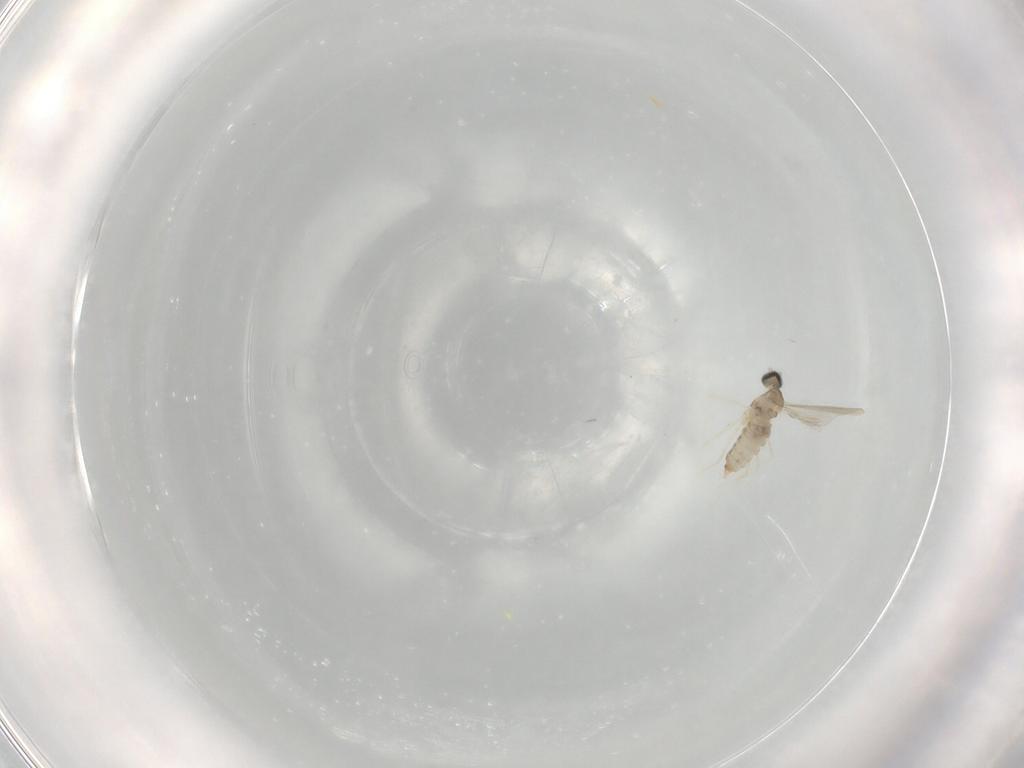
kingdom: Animalia
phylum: Arthropoda
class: Insecta
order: Diptera
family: Cecidomyiidae
